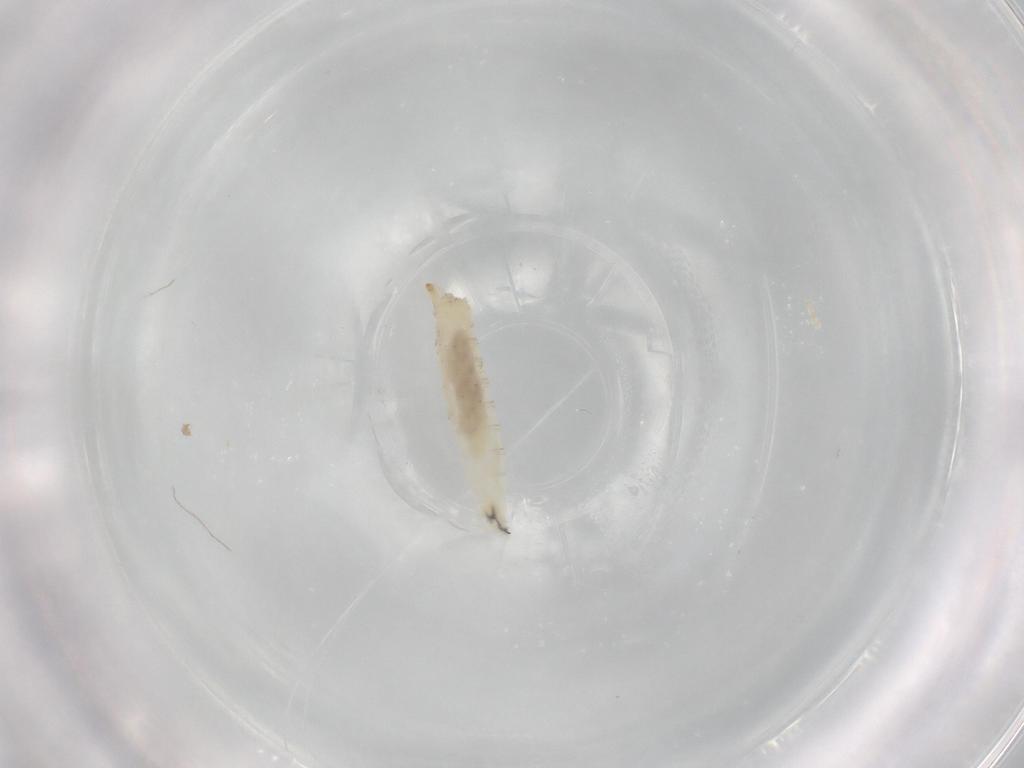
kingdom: Animalia
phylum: Arthropoda
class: Insecta
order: Diptera
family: Drosophilidae
